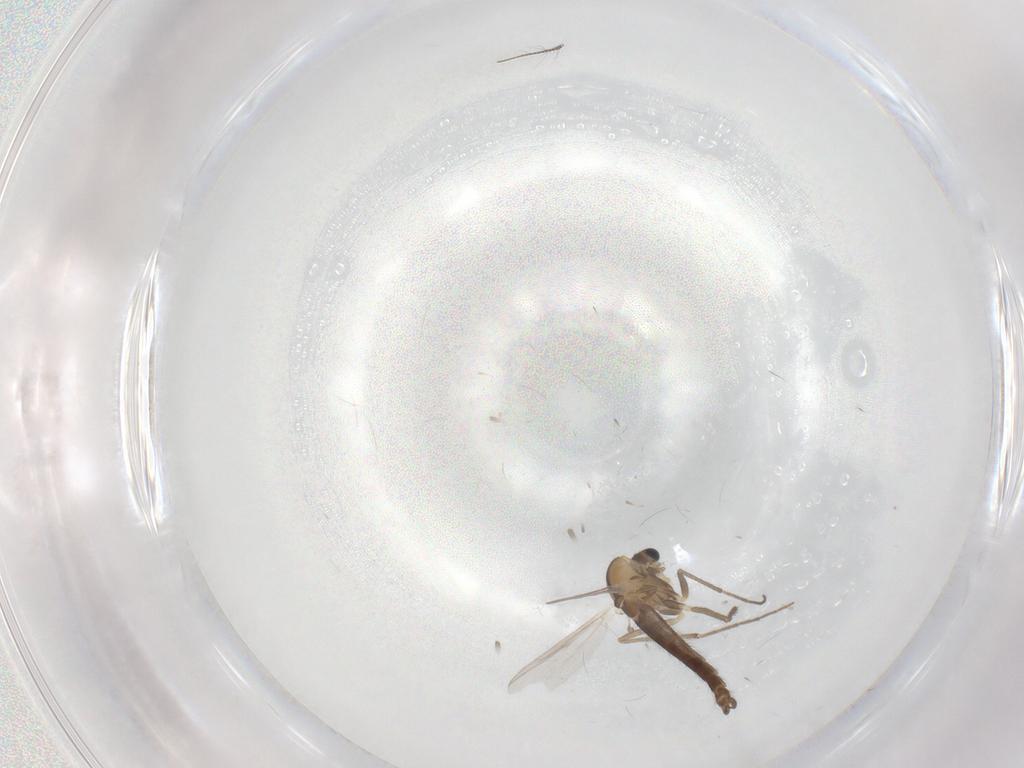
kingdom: Animalia
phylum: Arthropoda
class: Insecta
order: Diptera
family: Chironomidae
